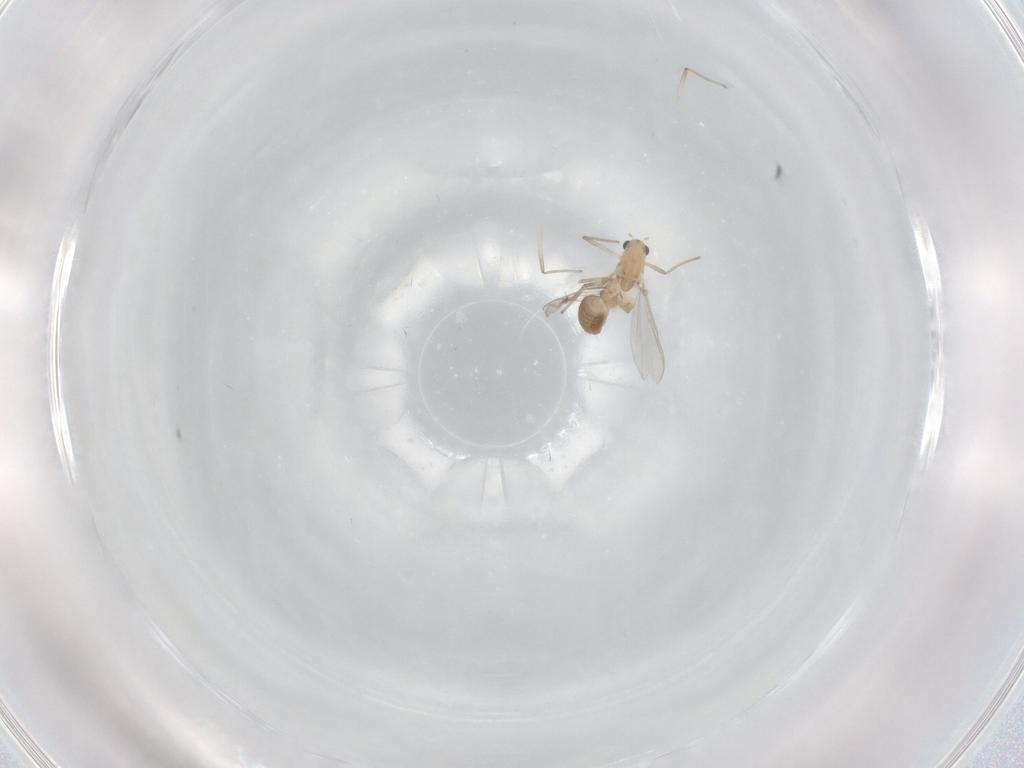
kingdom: Animalia
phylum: Arthropoda
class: Insecta
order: Diptera
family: Chironomidae
